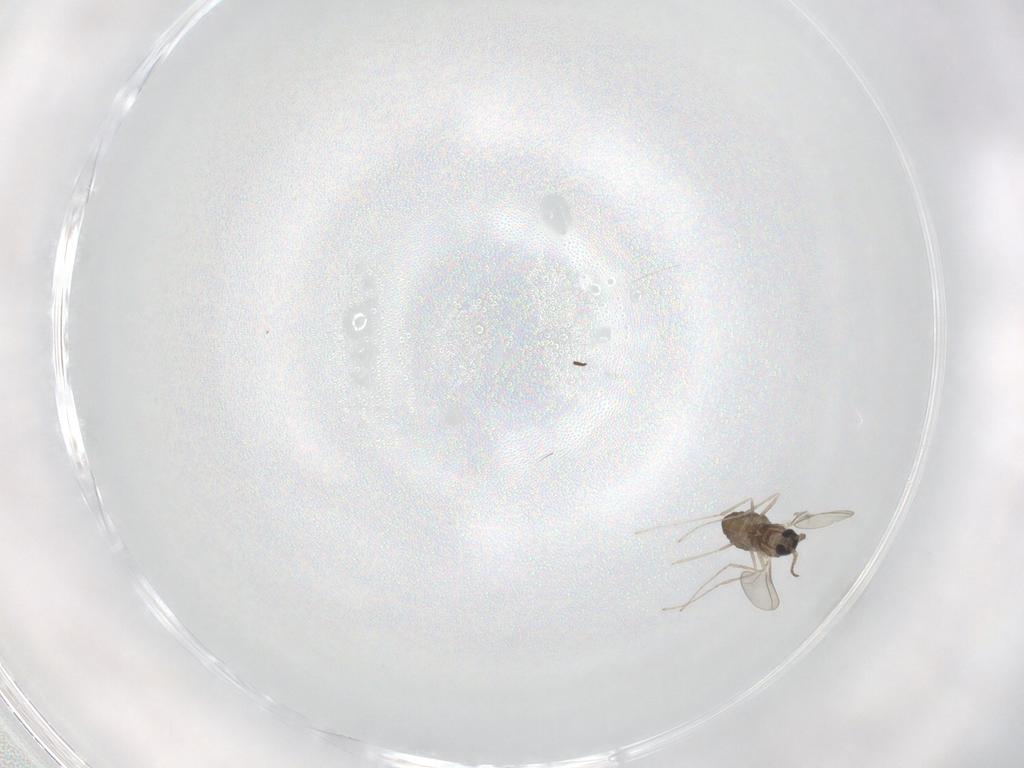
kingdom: Animalia
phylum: Arthropoda
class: Insecta
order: Diptera
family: Cecidomyiidae
